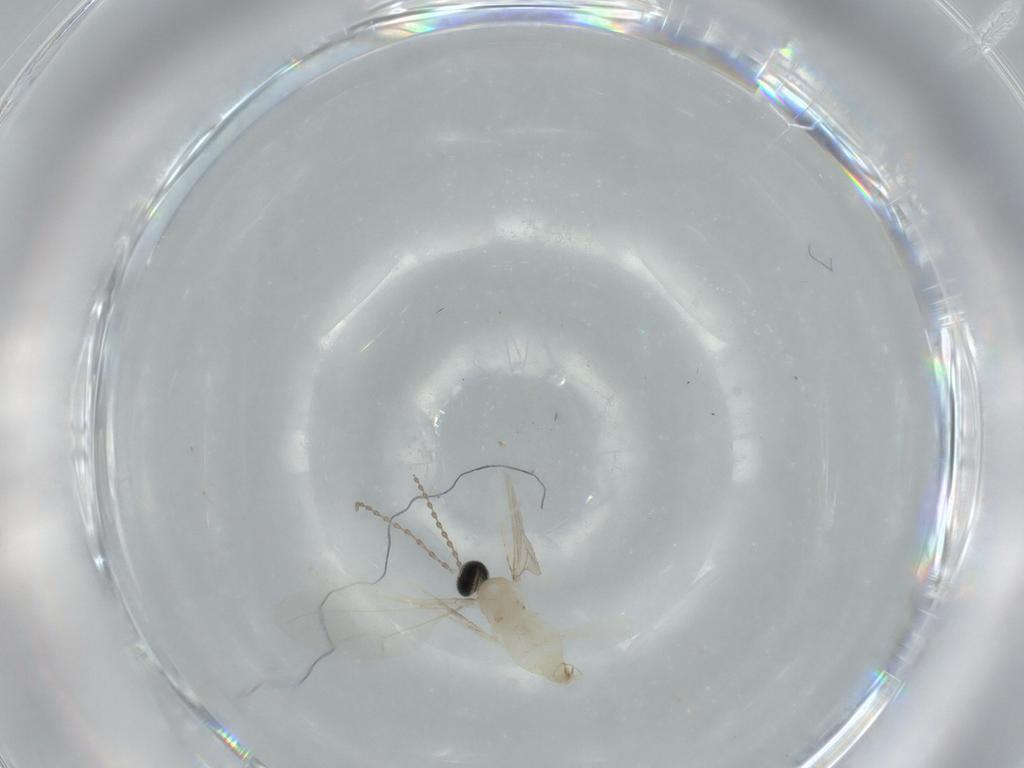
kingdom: Animalia
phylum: Arthropoda
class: Insecta
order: Diptera
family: Cecidomyiidae
